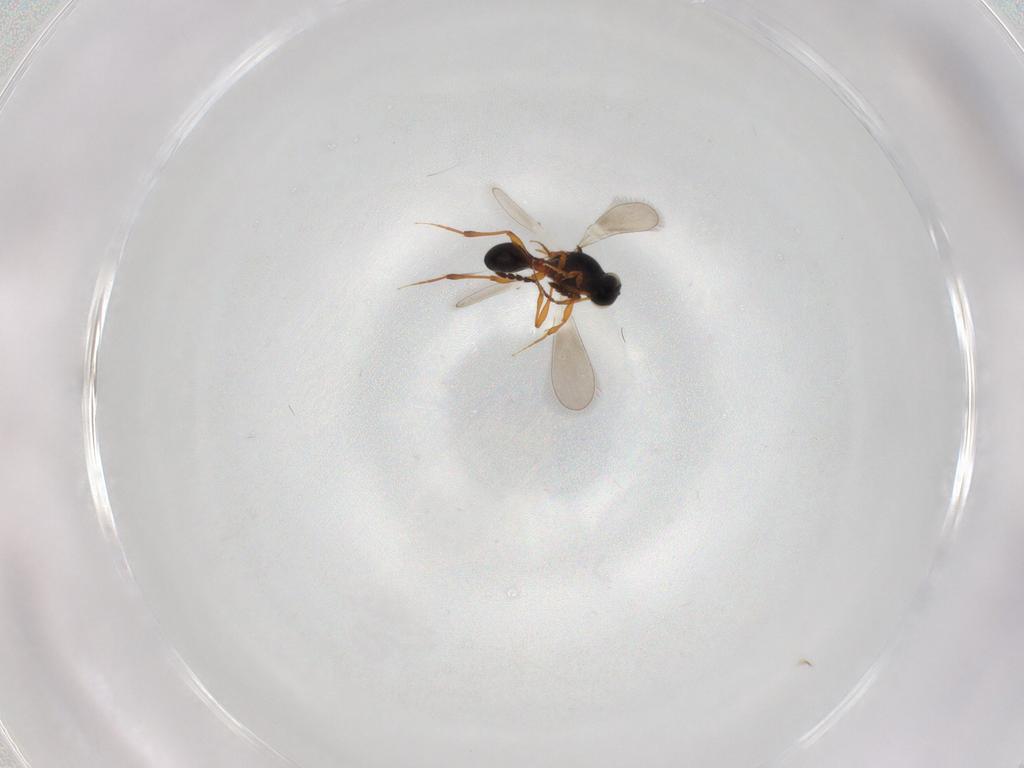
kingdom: Animalia
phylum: Arthropoda
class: Insecta
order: Hymenoptera
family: Platygastridae
